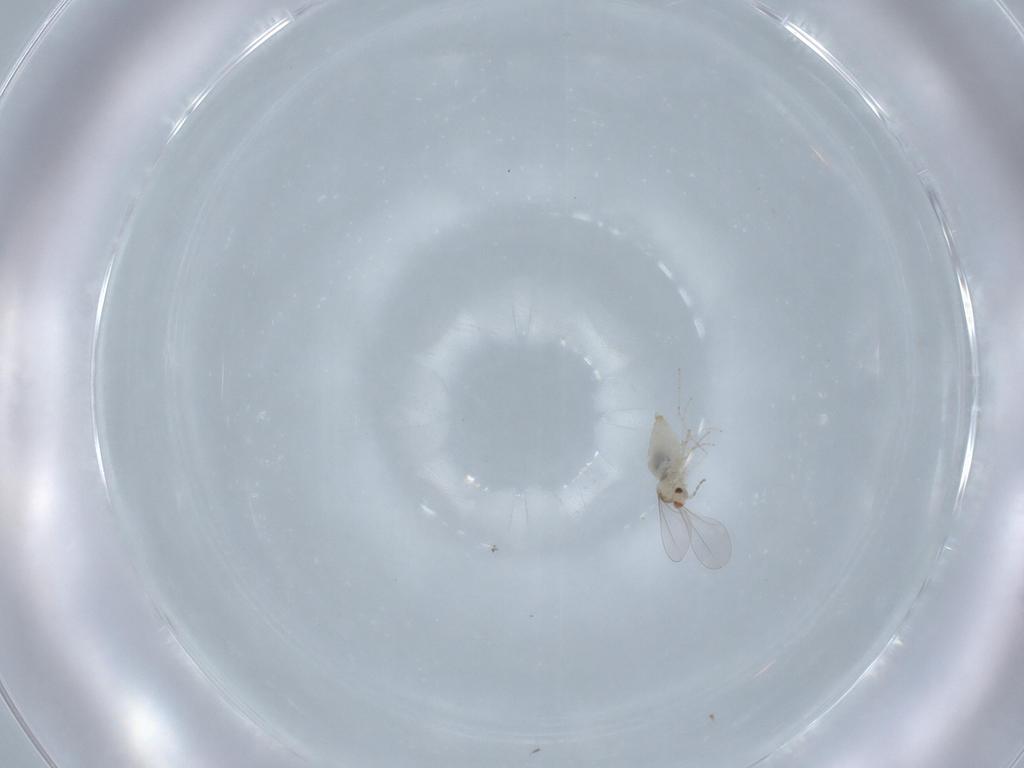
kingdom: Animalia
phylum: Arthropoda
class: Insecta
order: Diptera
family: Cecidomyiidae
